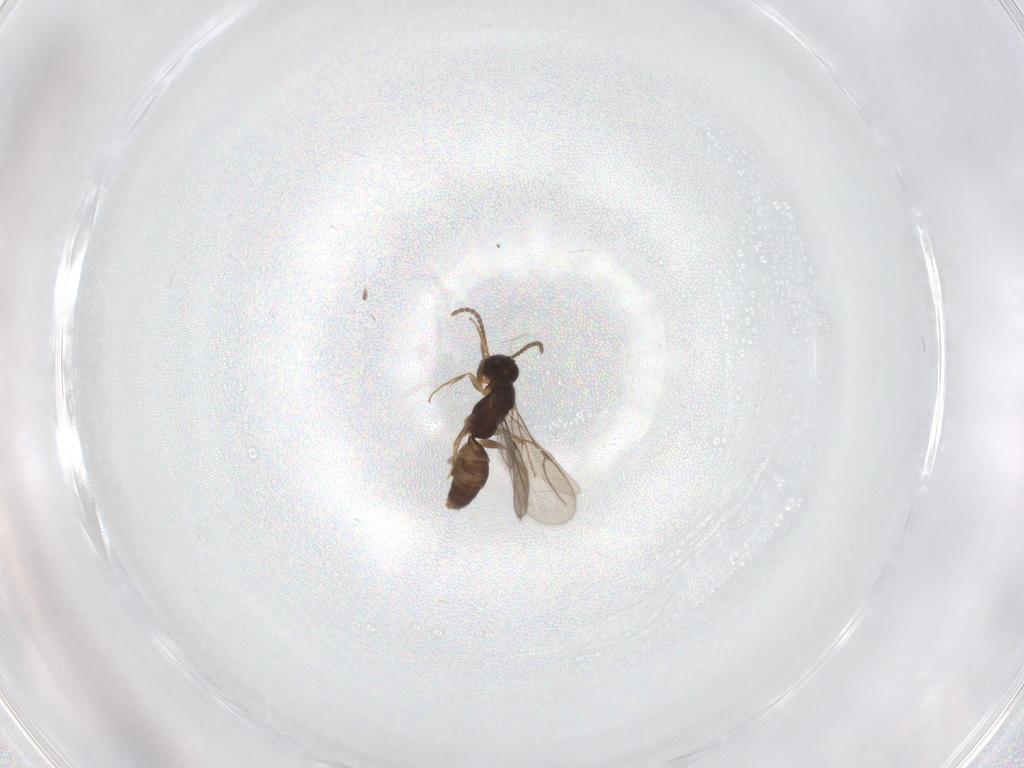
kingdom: Animalia
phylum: Arthropoda
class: Insecta
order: Hymenoptera
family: Bethylidae
